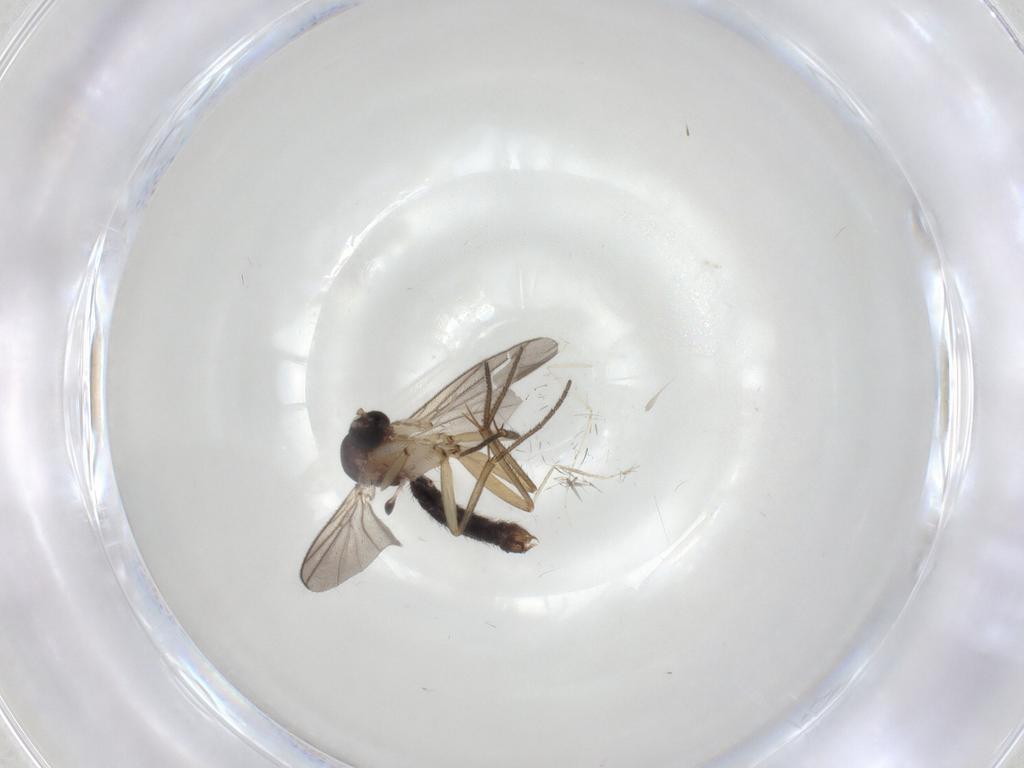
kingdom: Animalia
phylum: Arthropoda
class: Insecta
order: Diptera
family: Mycetophilidae
